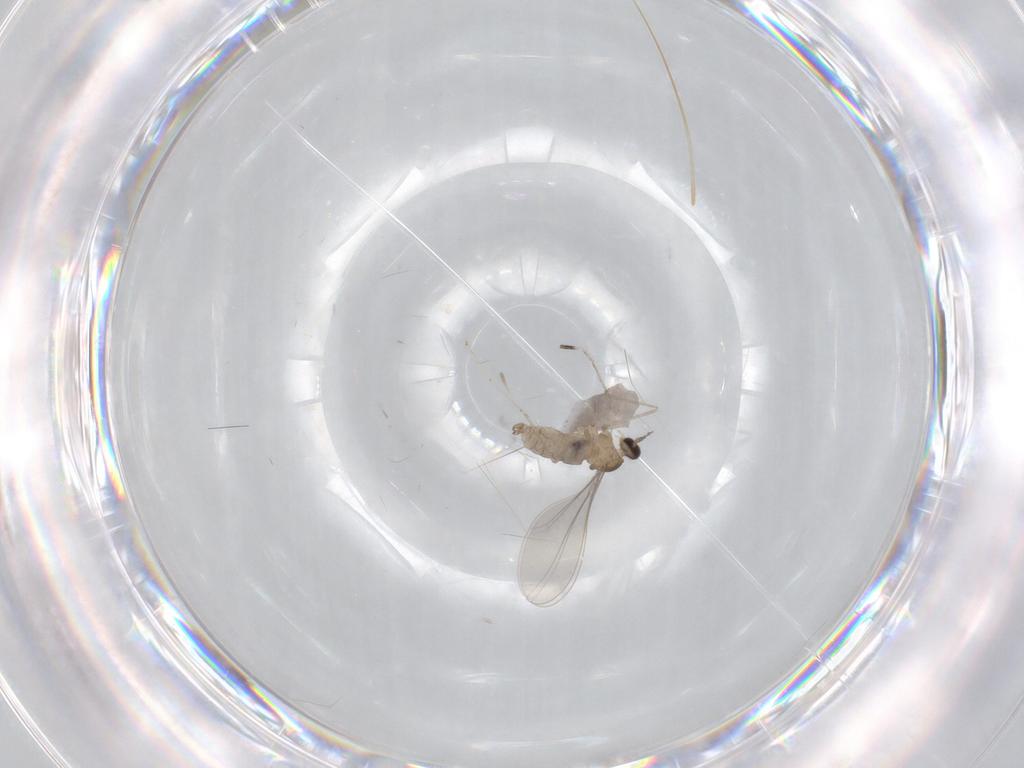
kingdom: Animalia
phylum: Arthropoda
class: Insecta
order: Diptera
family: Cecidomyiidae
